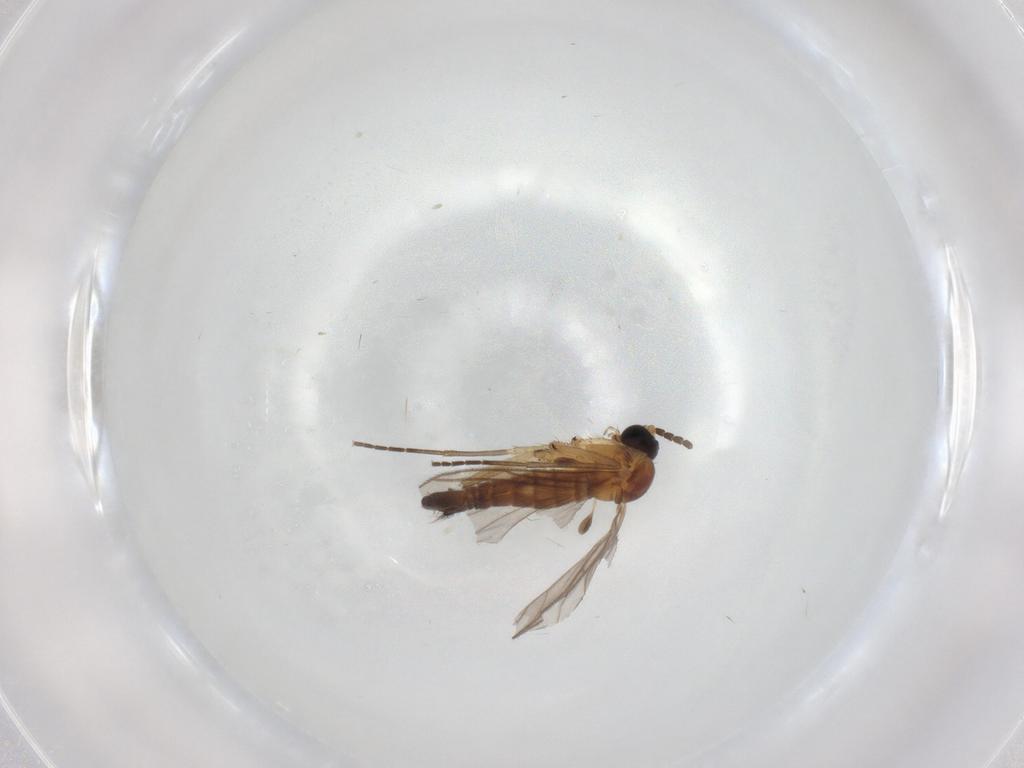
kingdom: Animalia
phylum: Arthropoda
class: Insecta
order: Diptera
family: Sciaridae
